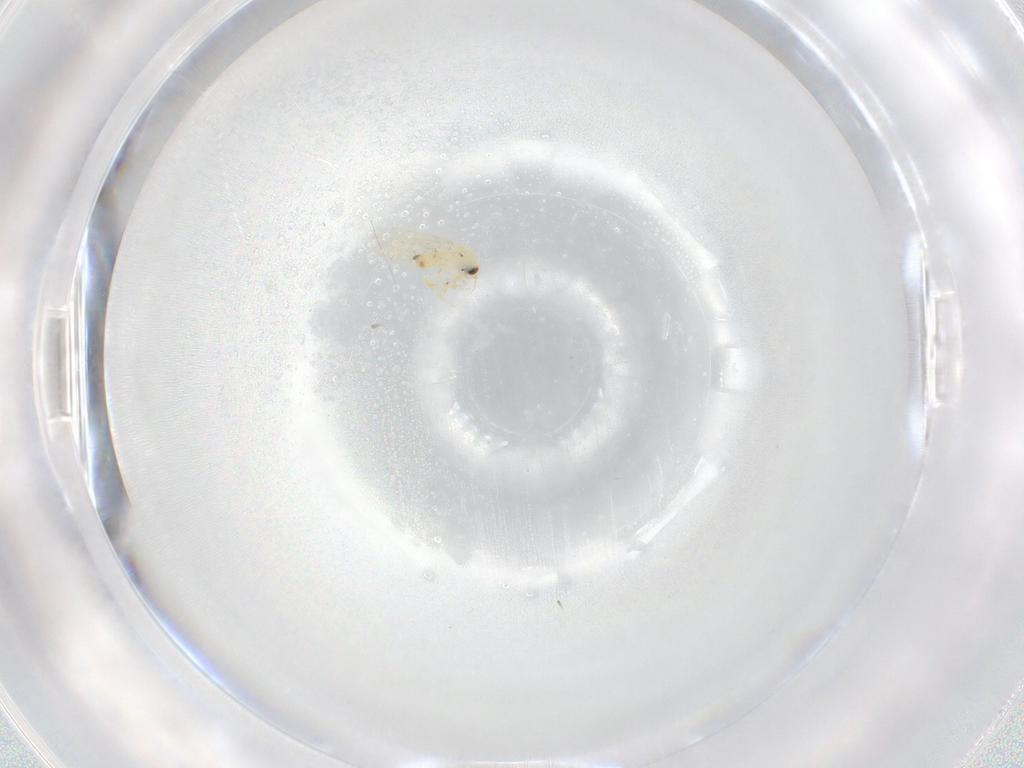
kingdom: Animalia
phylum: Arthropoda
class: Insecta
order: Hemiptera
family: Aleyrodidae
